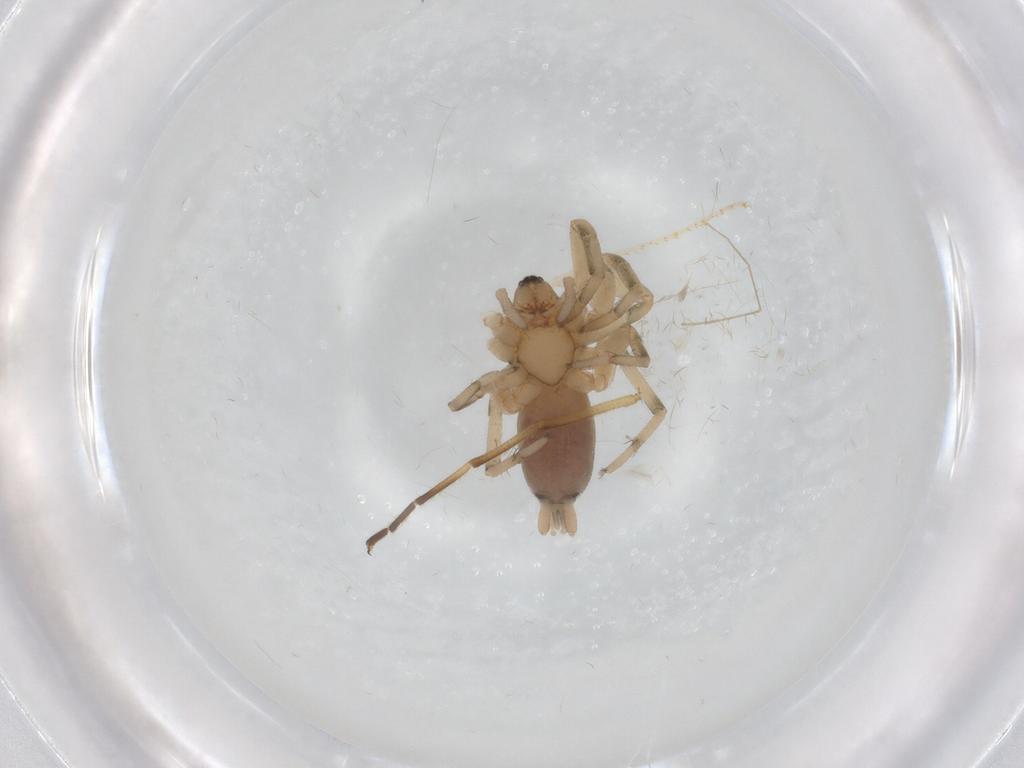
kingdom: Animalia
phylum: Arthropoda
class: Arachnida
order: Araneae
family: Gnaphosidae
